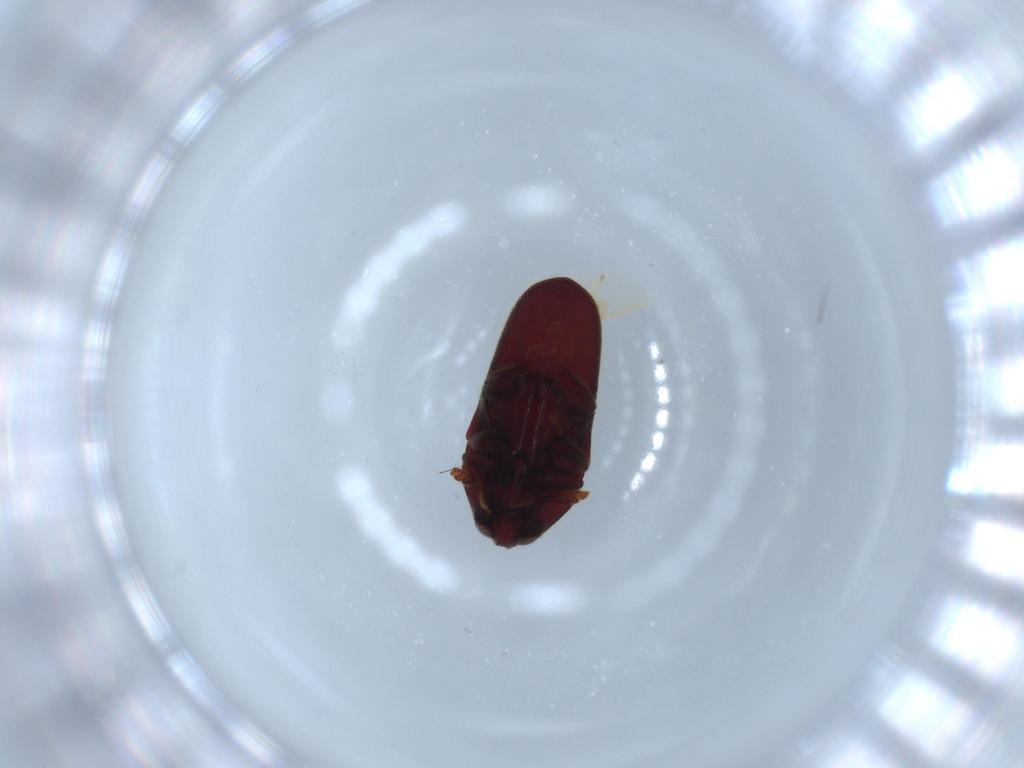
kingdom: Animalia
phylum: Arthropoda
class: Insecta
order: Coleoptera
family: Throscidae
